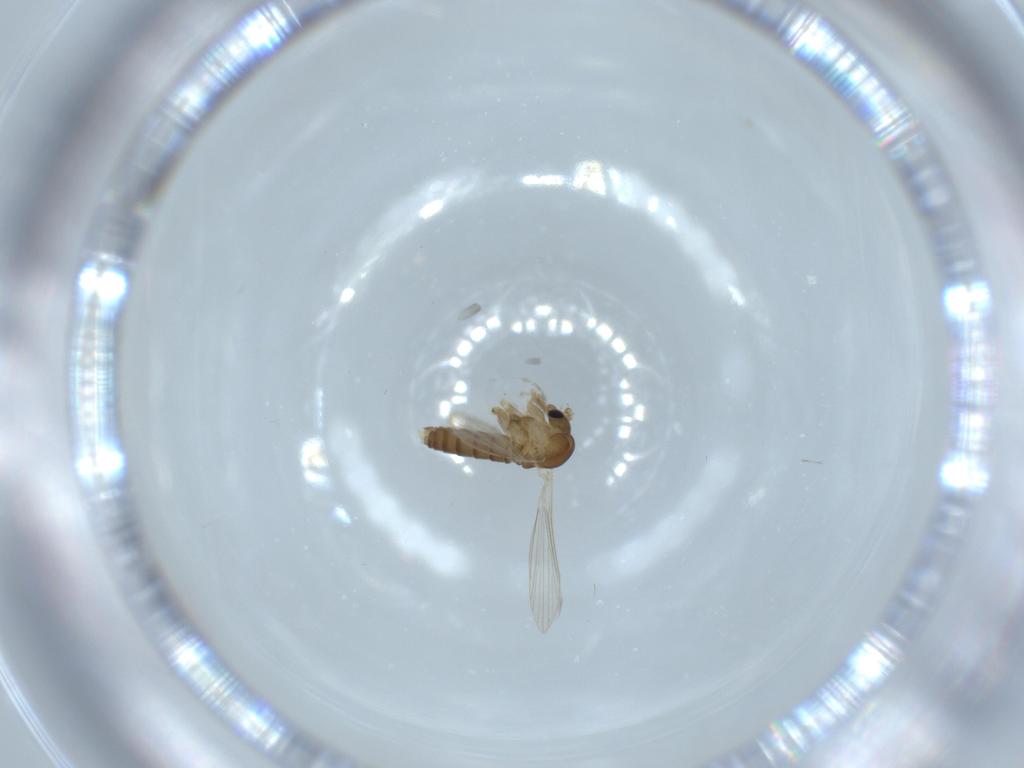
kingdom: Animalia
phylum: Arthropoda
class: Insecta
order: Diptera
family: Psychodidae
